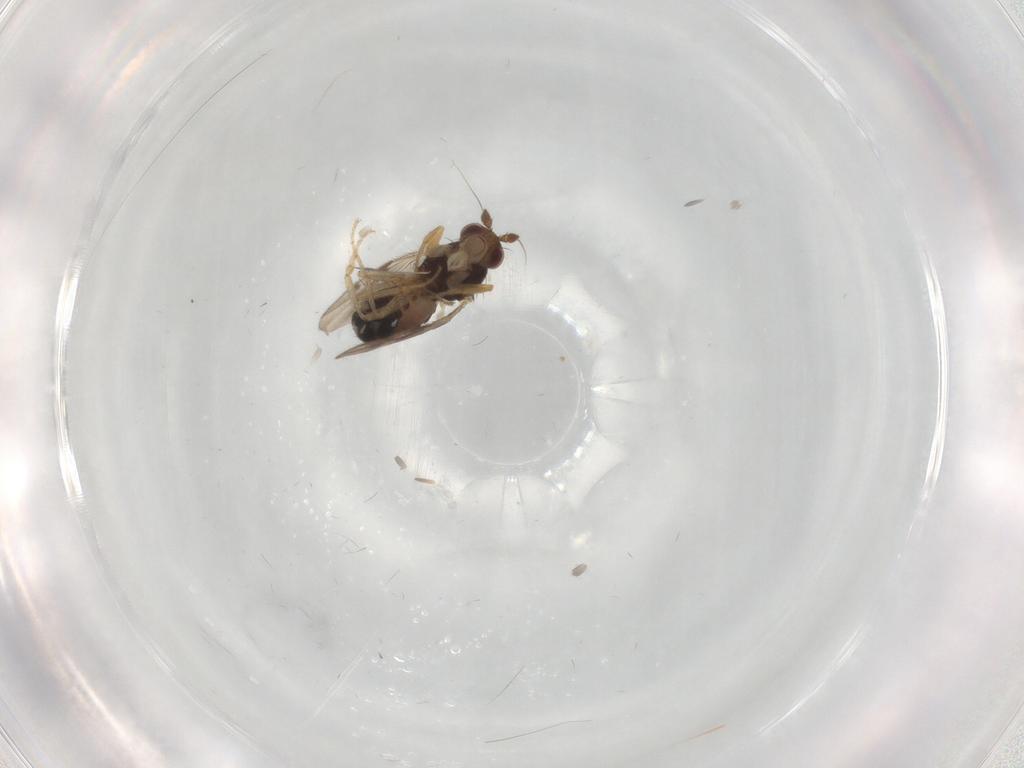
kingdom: Animalia
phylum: Arthropoda
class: Insecta
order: Diptera
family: Sphaeroceridae
